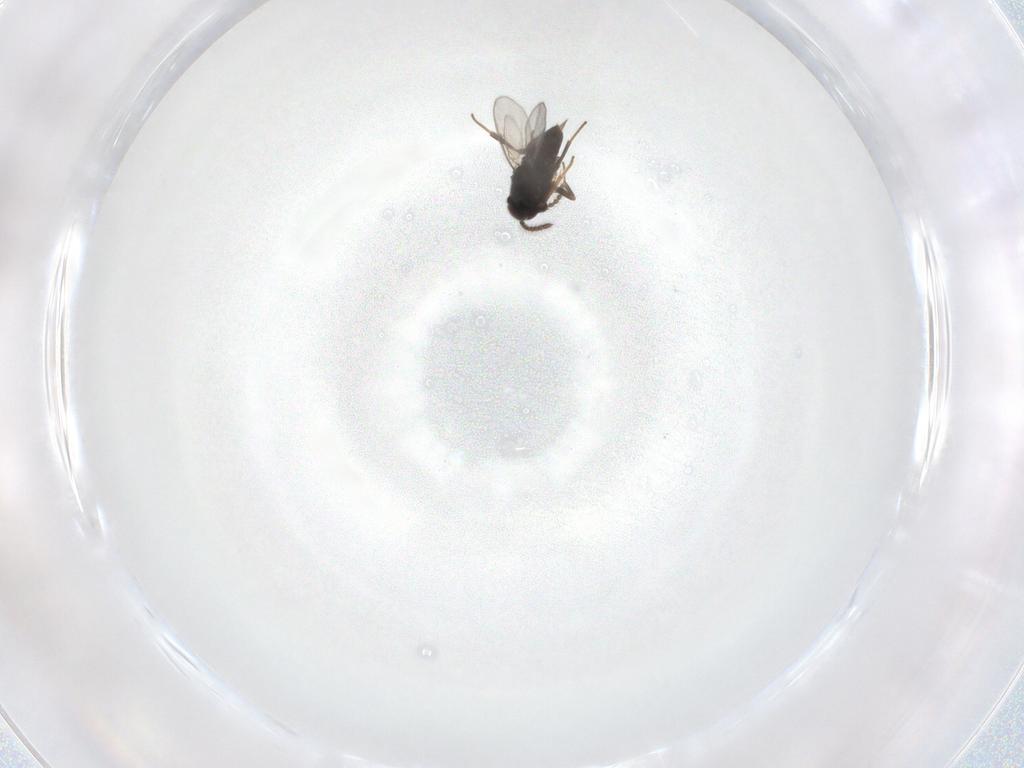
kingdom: Animalia
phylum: Arthropoda
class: Insecta
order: Hymenoptera
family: Encyrtidae
